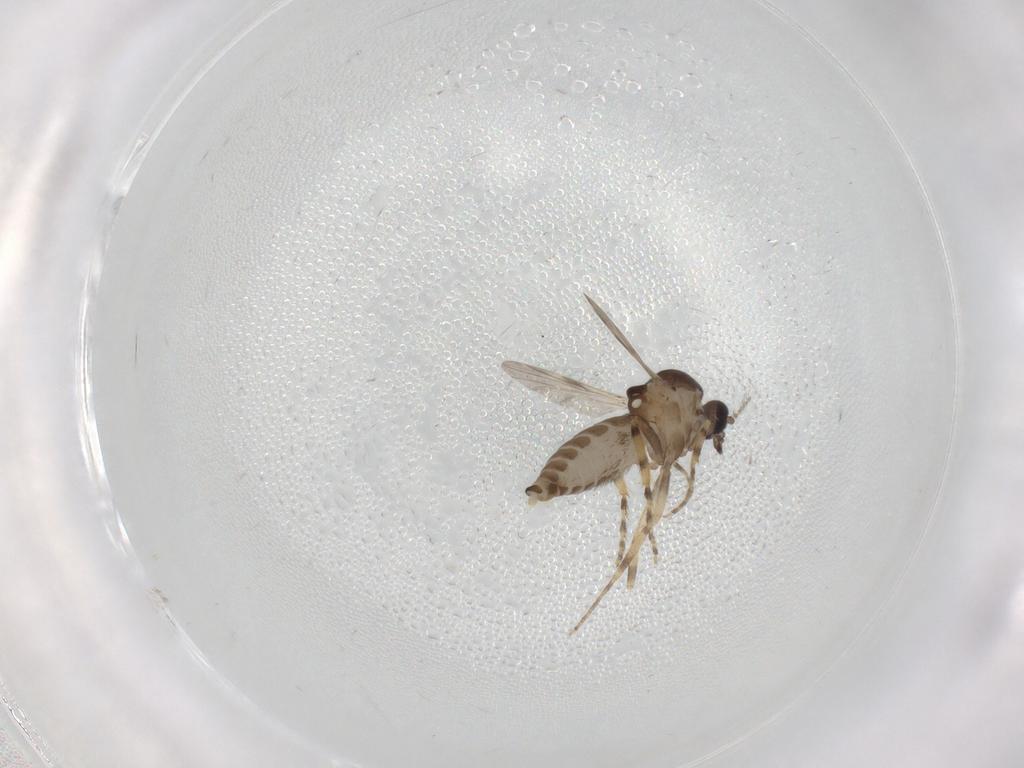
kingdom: Animalia
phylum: Arthropoda
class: Insecta
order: Diptera
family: Ceratopogonidae
